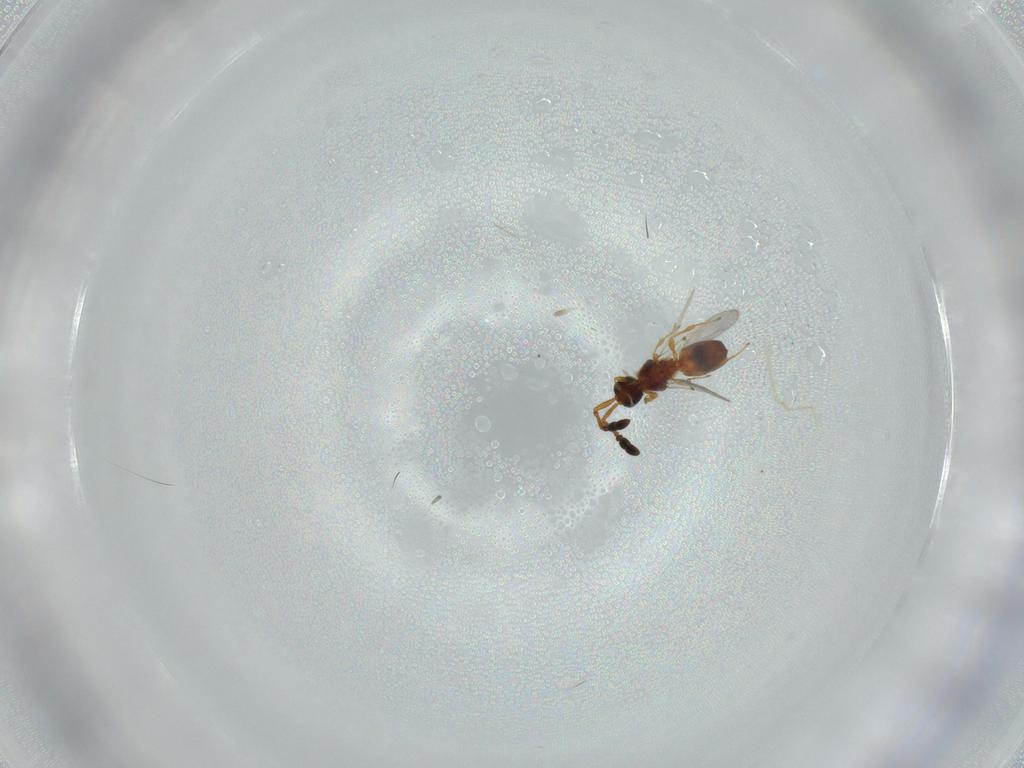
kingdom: Animalia
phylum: Arthropoda
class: Insecta
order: Hymenoptera
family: Diapriidae
